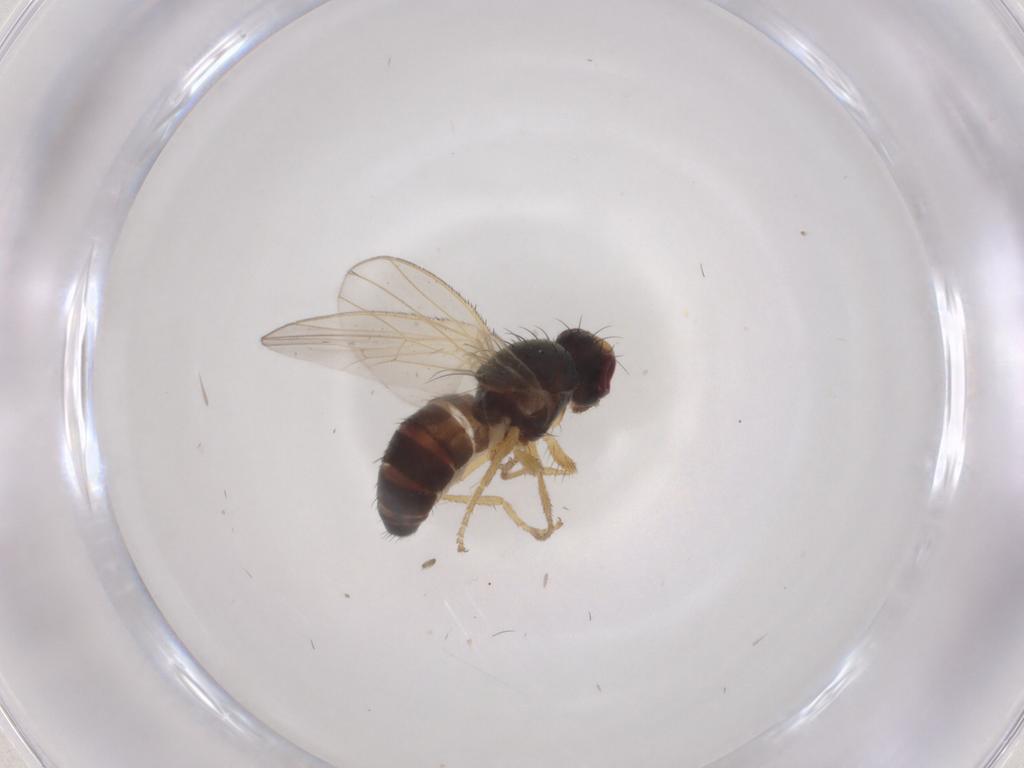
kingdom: Animalia
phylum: Arthropoda
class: Insecta
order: Diptera
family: Heleomyzidae
